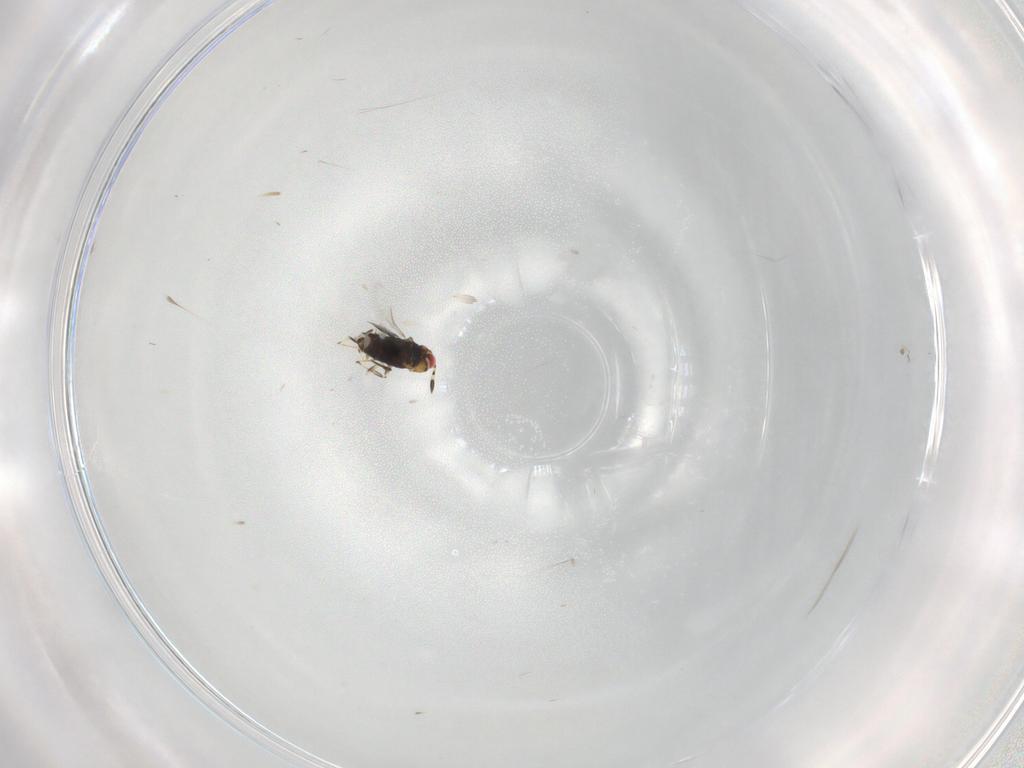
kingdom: Animalia
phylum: Arthropoda
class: Insecta
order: Hymenoptera
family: Azotidae
